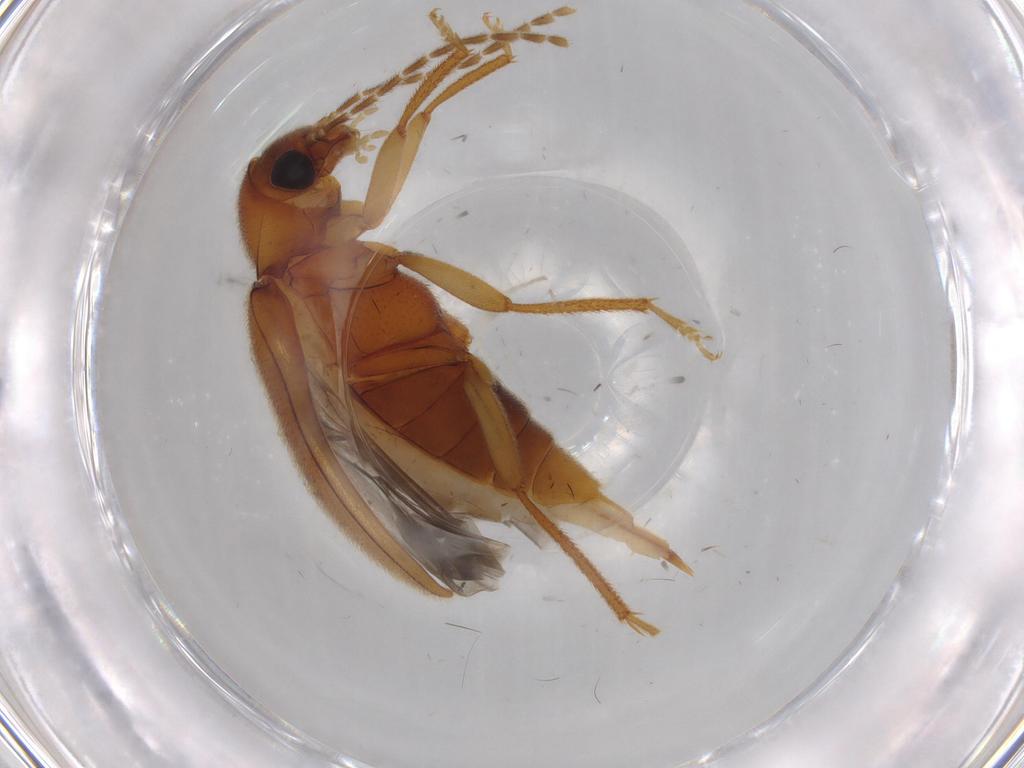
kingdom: Animalia
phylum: Arthropoda
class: Insecta
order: Coleoptera
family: Ptilodactylidae
